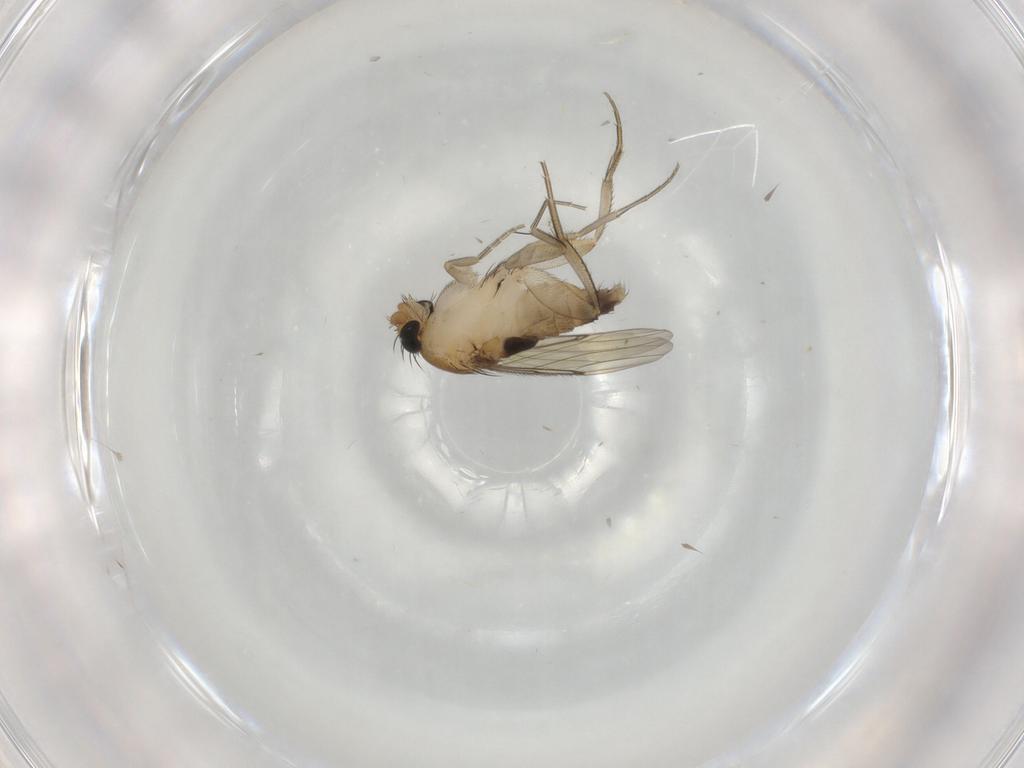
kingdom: Animalia
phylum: Arthropoda
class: Insecta
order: Diptera
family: Phoridae
